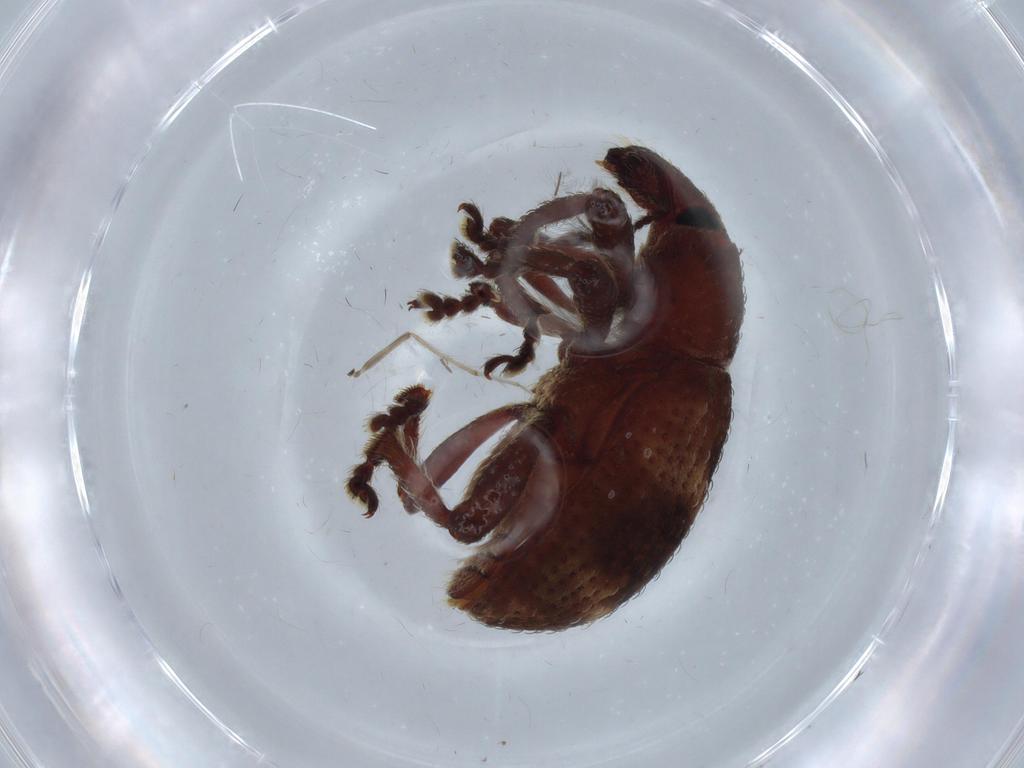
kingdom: Animalia
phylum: Arthropoda
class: Insecta
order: Coleoptera
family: Curculionidae
